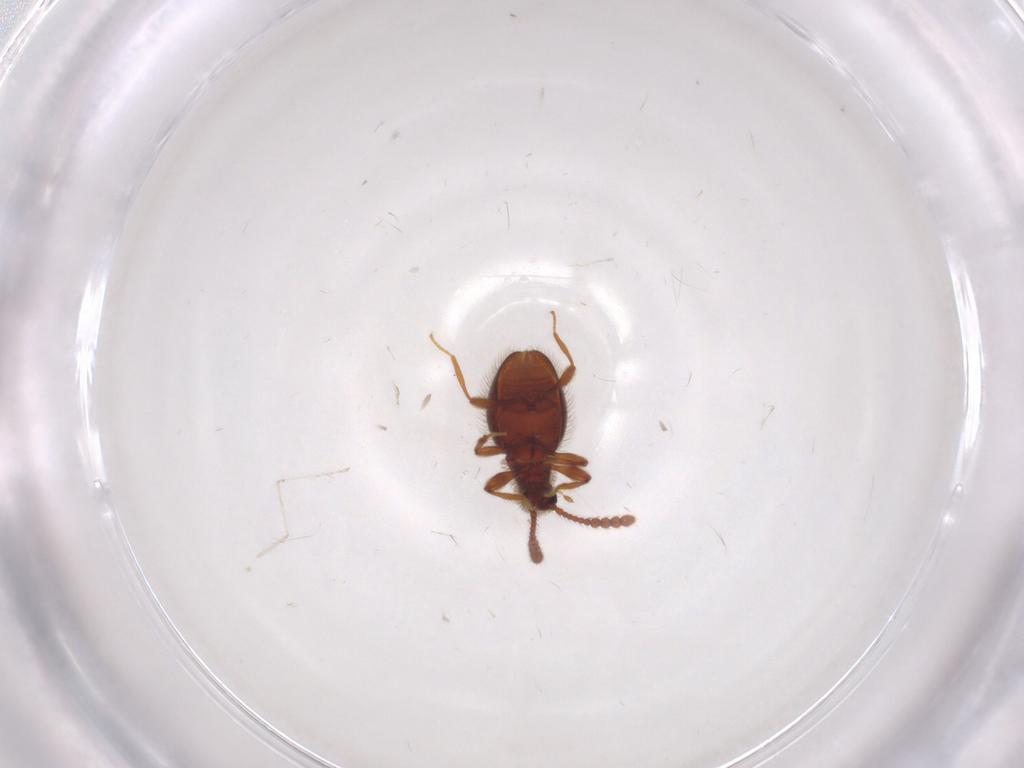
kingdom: Animalia
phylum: Arthropoda
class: Insecta
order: Coleoptera
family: Staphylinidae
